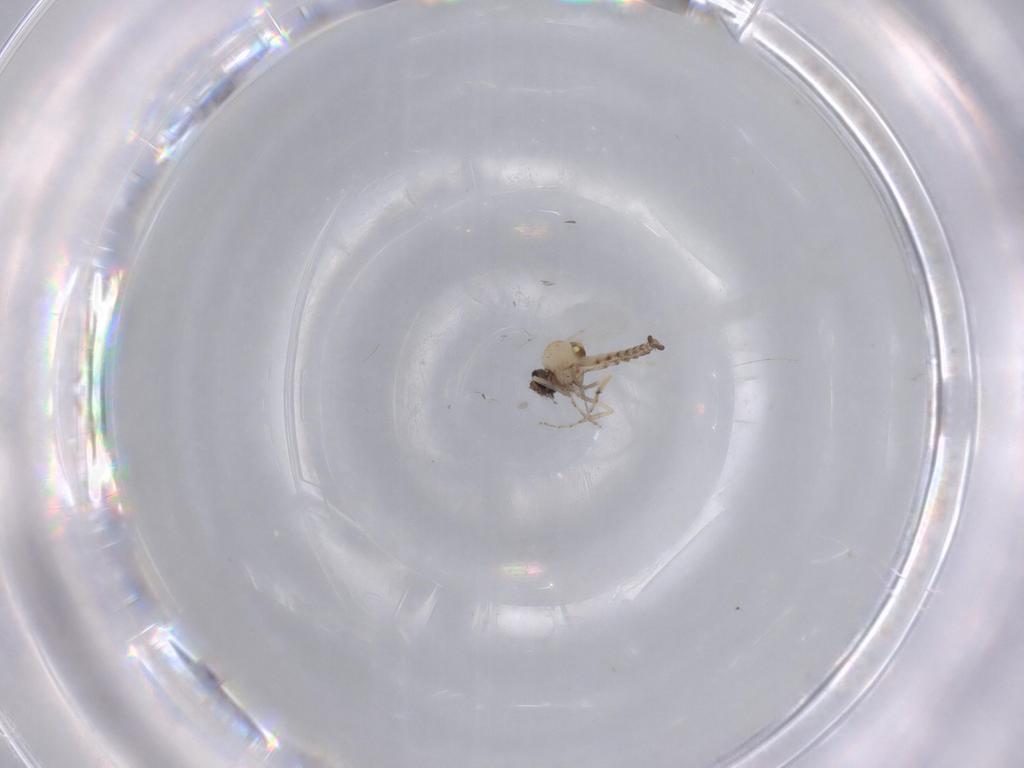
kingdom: Animalia
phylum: Arthropoda
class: Insecta
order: Diptera
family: Ceratopogonidae
